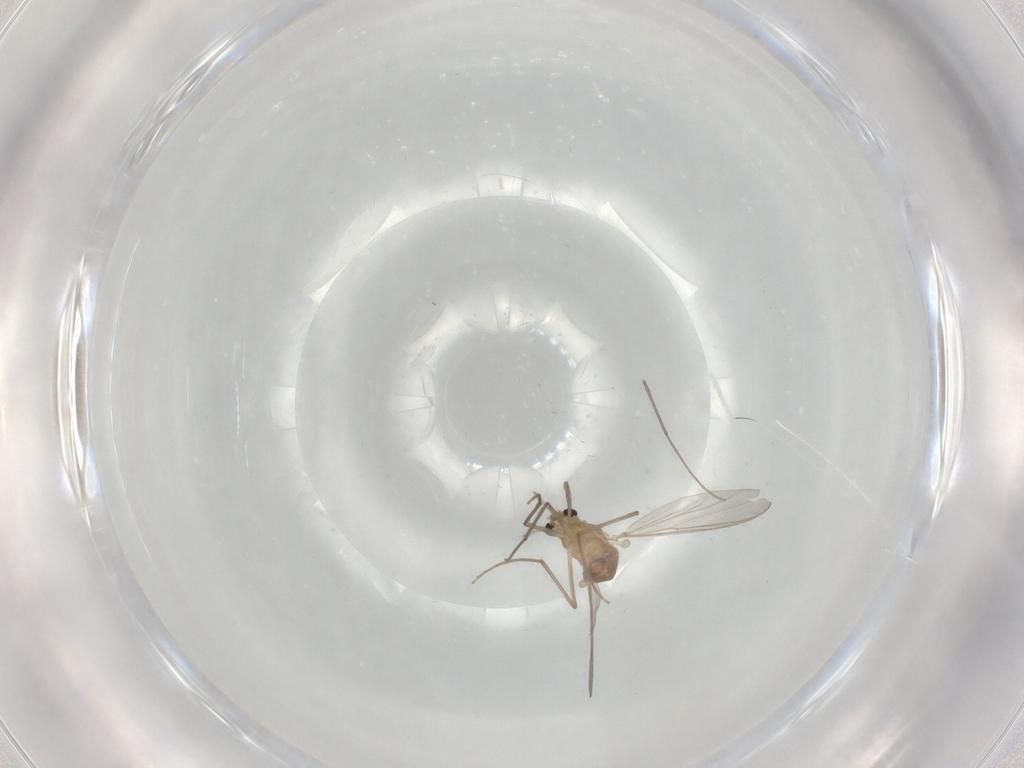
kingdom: Animalia
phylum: Arthropoda
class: Insecta
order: Diptera
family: Chironomidae
